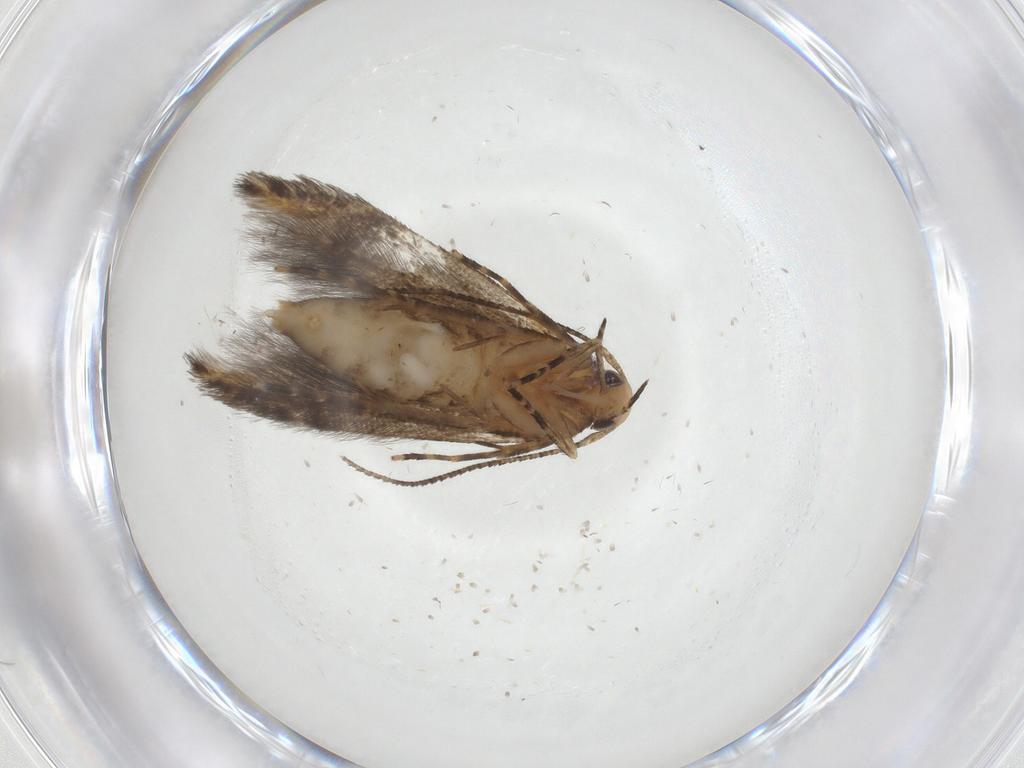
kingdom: Animalia
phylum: Arthropoda
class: Insecta
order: Lepidoptera
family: Cosmopterigidae
